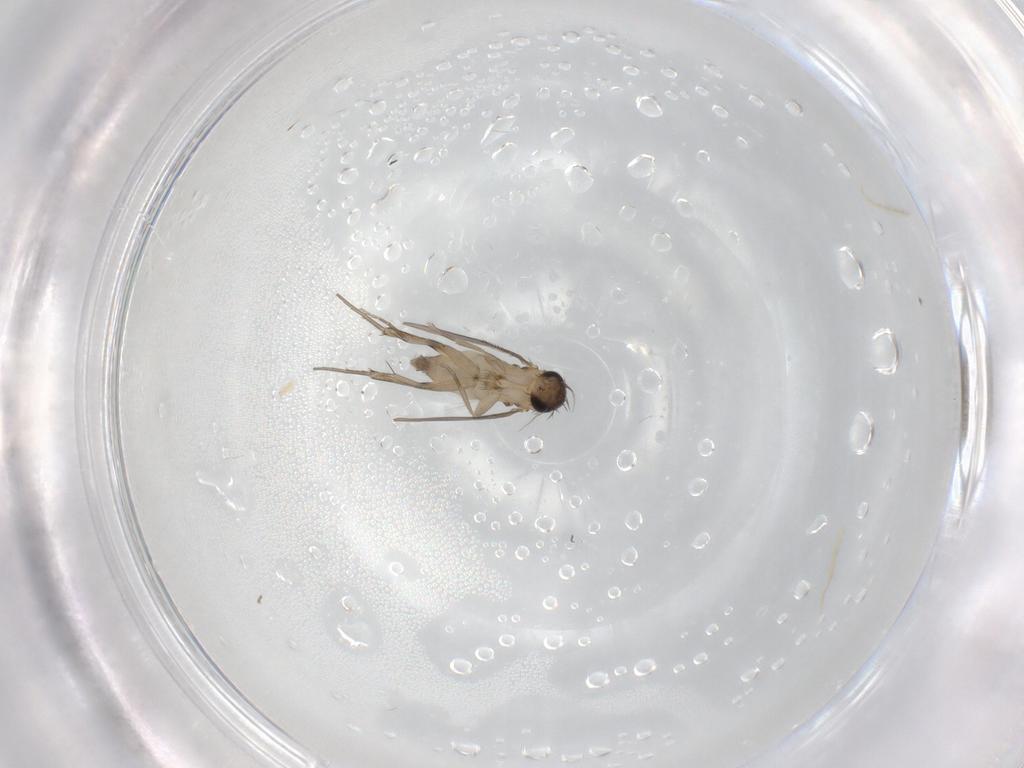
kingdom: Animalia
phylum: Arthropoda
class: Insecta
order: Diptera
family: Phoridae
